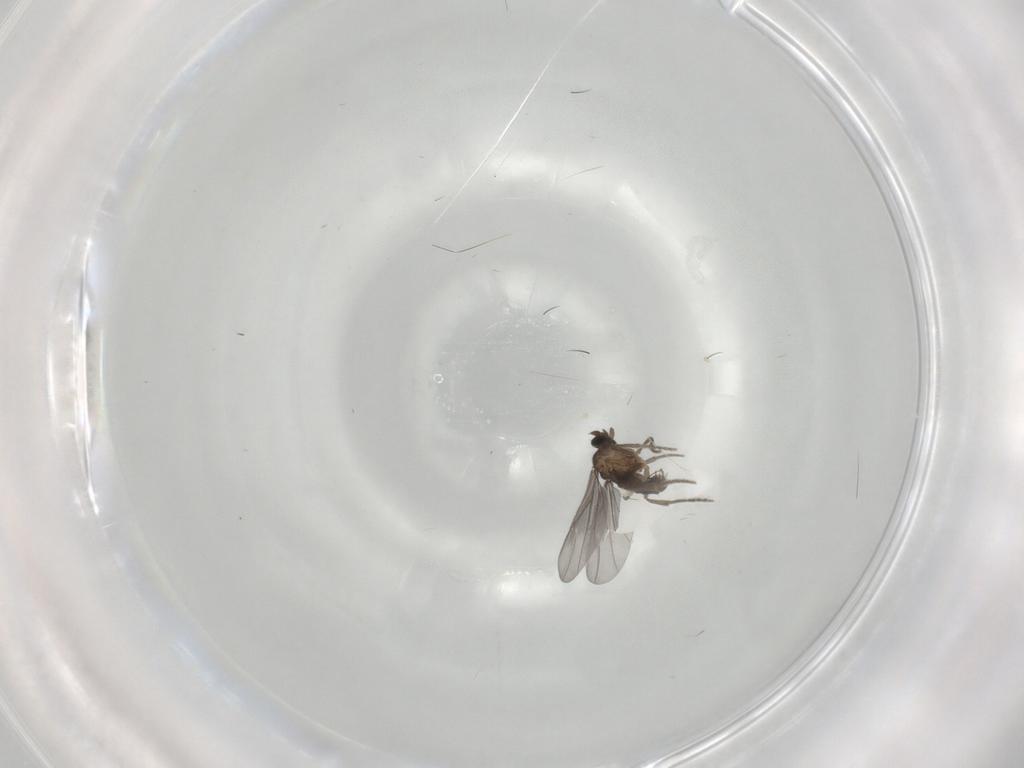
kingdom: Animalia
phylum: Arthropoda
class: Insecta
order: Diptera
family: Phoridae
